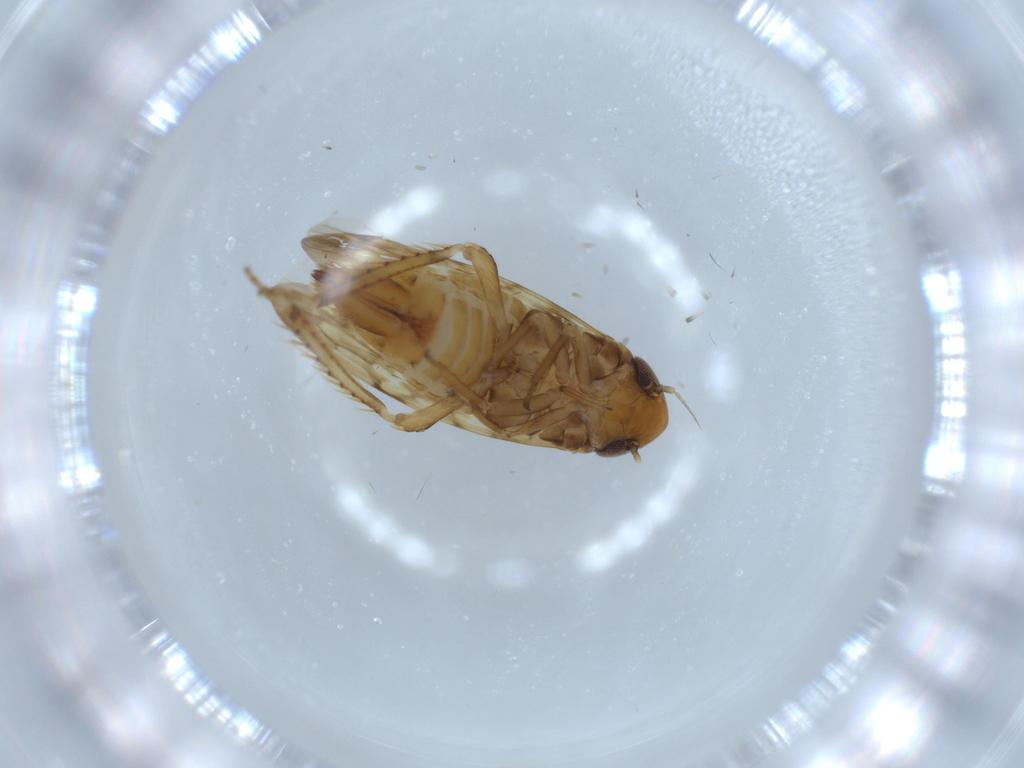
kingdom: Animalia
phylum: Arthropoda
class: Insecta
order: Hemiptera
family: Cicadellidae
